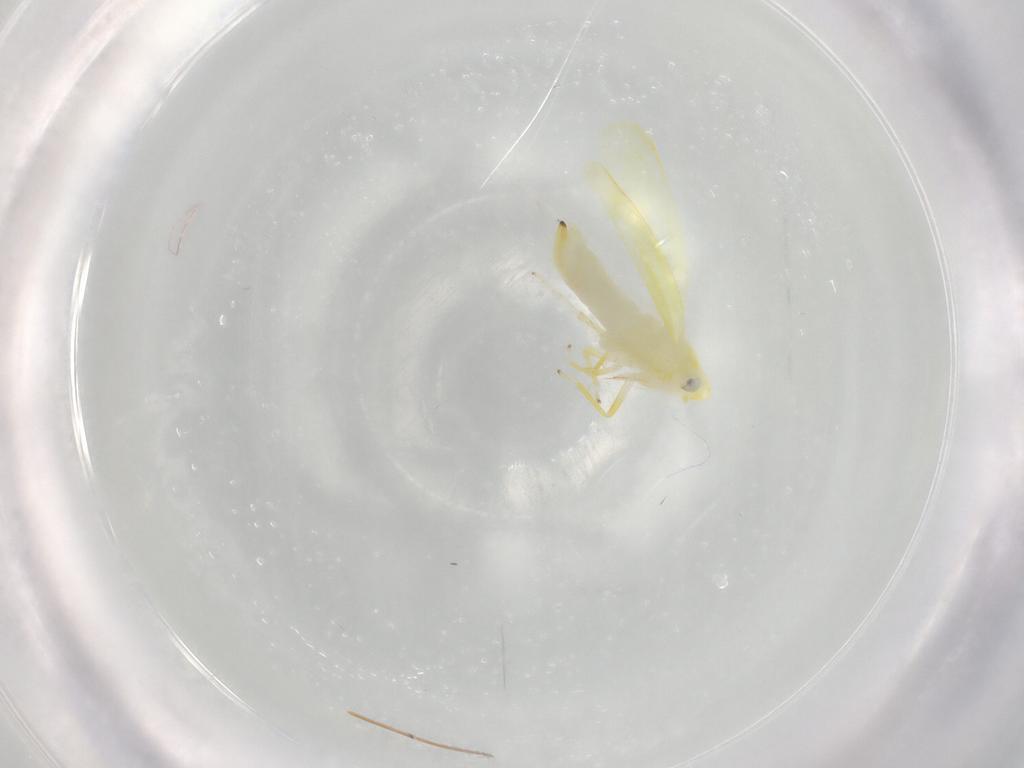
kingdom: Animalia
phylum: Arthropoda
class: Insecta
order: Hemiptera
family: Cicadellidae
